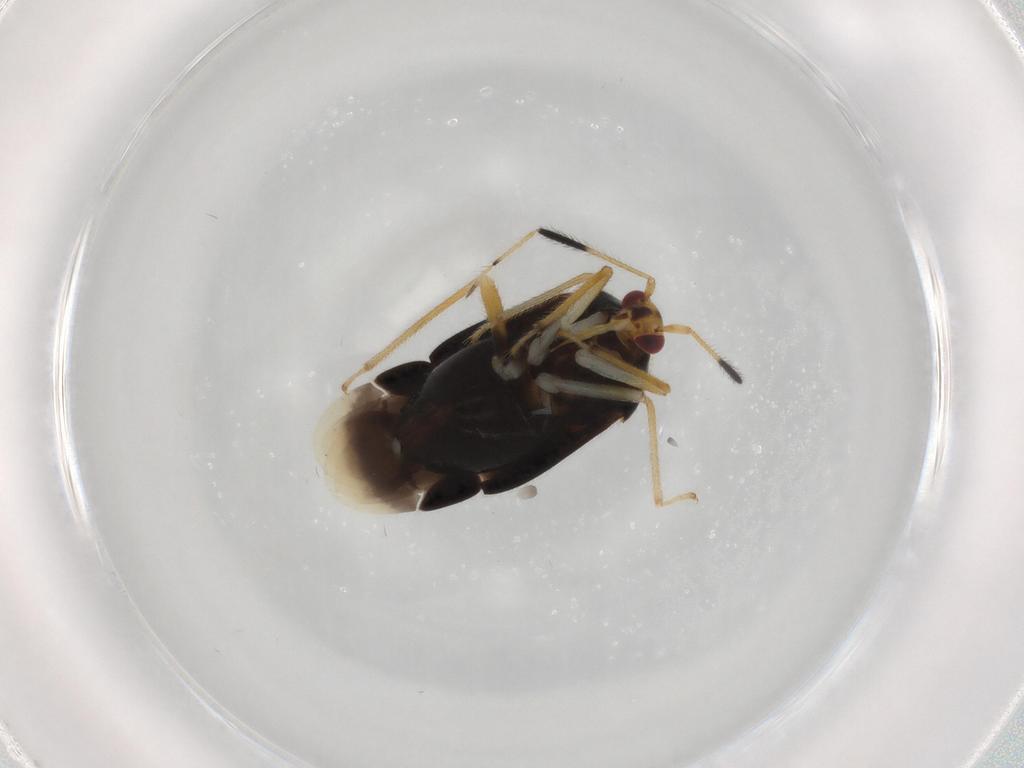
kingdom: Animalia
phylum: Arthropoda
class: Insecta
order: Hemiptera
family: Miridae
